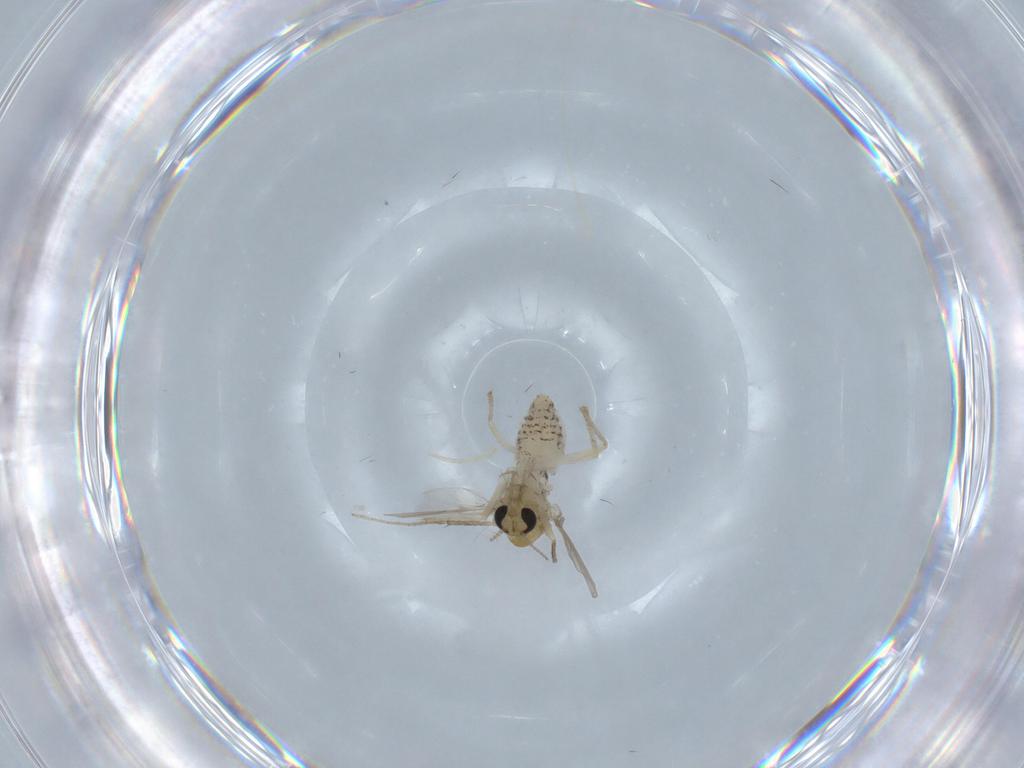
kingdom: Animalia
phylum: Arthropoda
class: Insecta
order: Diptera
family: Chironomidae
